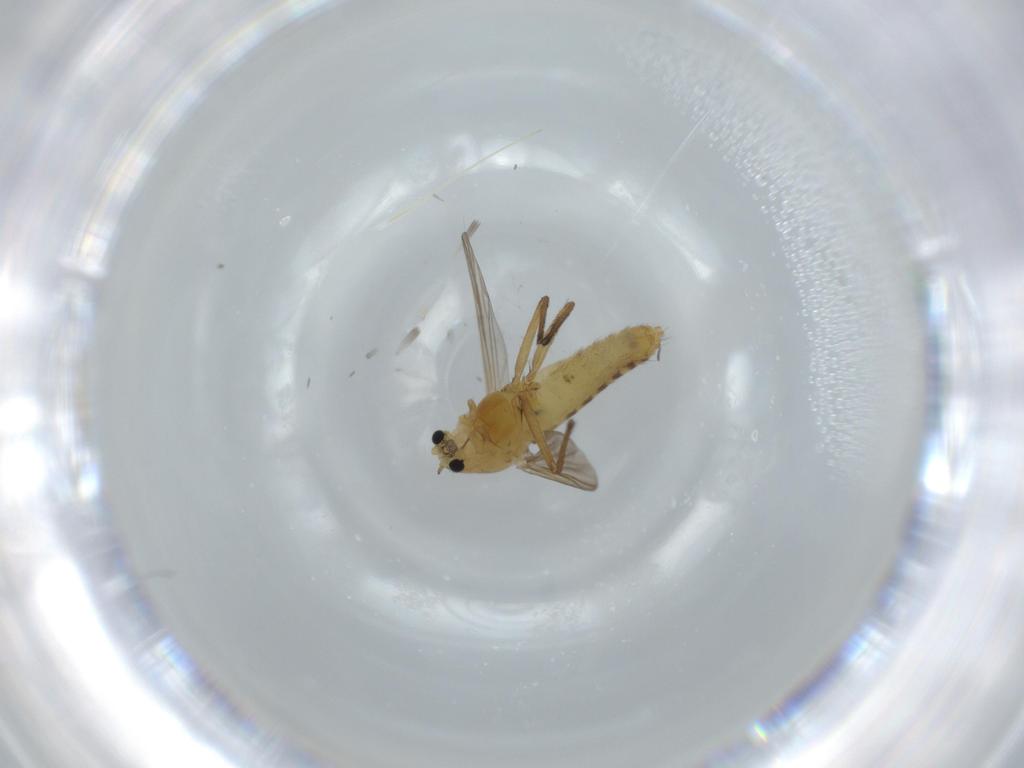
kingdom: Animalia
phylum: Arthropoda
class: Insecta
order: Diptera
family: Chironomidae
